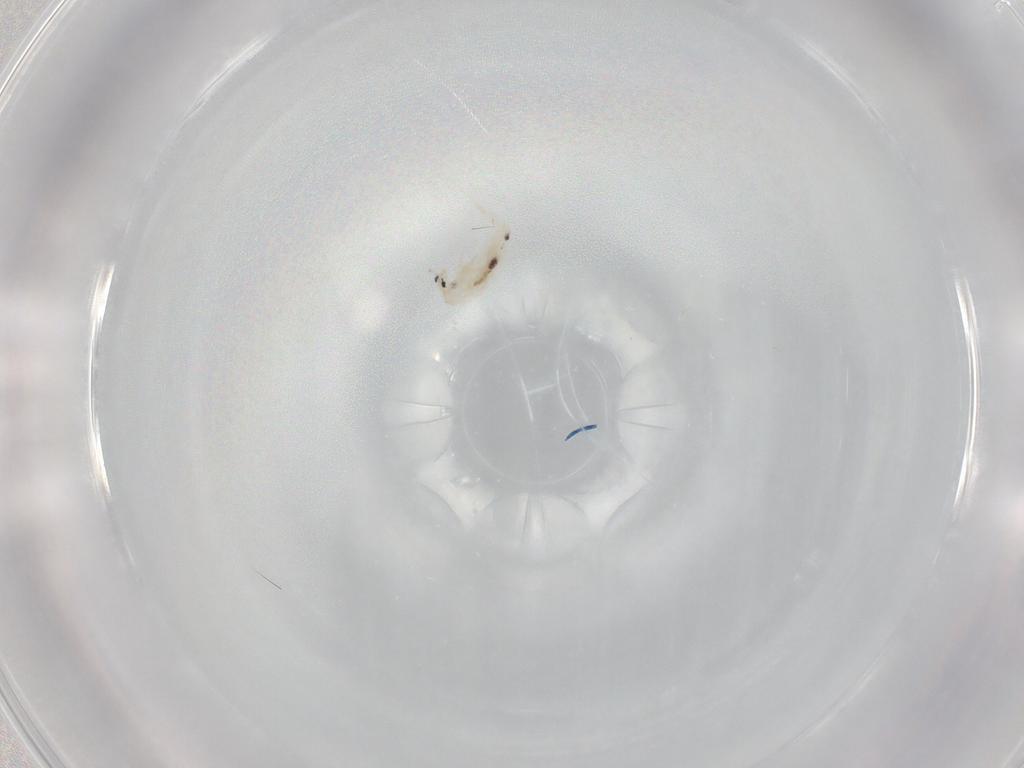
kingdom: Animalia
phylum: Arthropoda
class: Collembola
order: Entomobryomorpha
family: Entomobryidae
